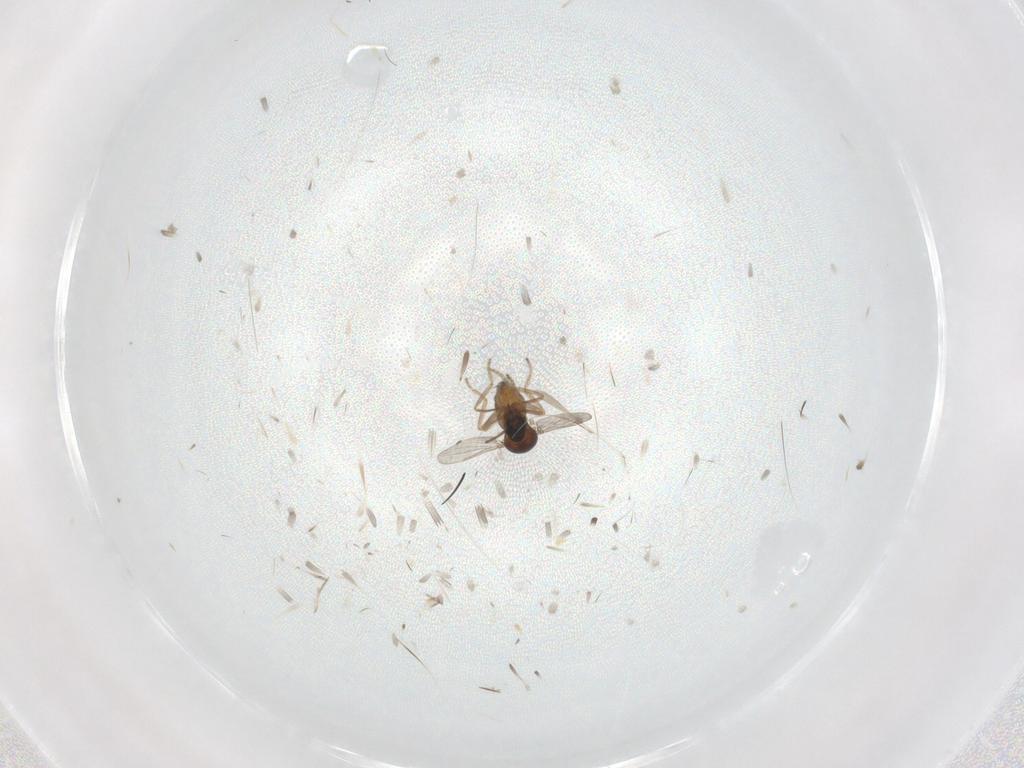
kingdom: Animalia
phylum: Arthropoda
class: Insecta
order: Diptera
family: Ceratopogonidae
